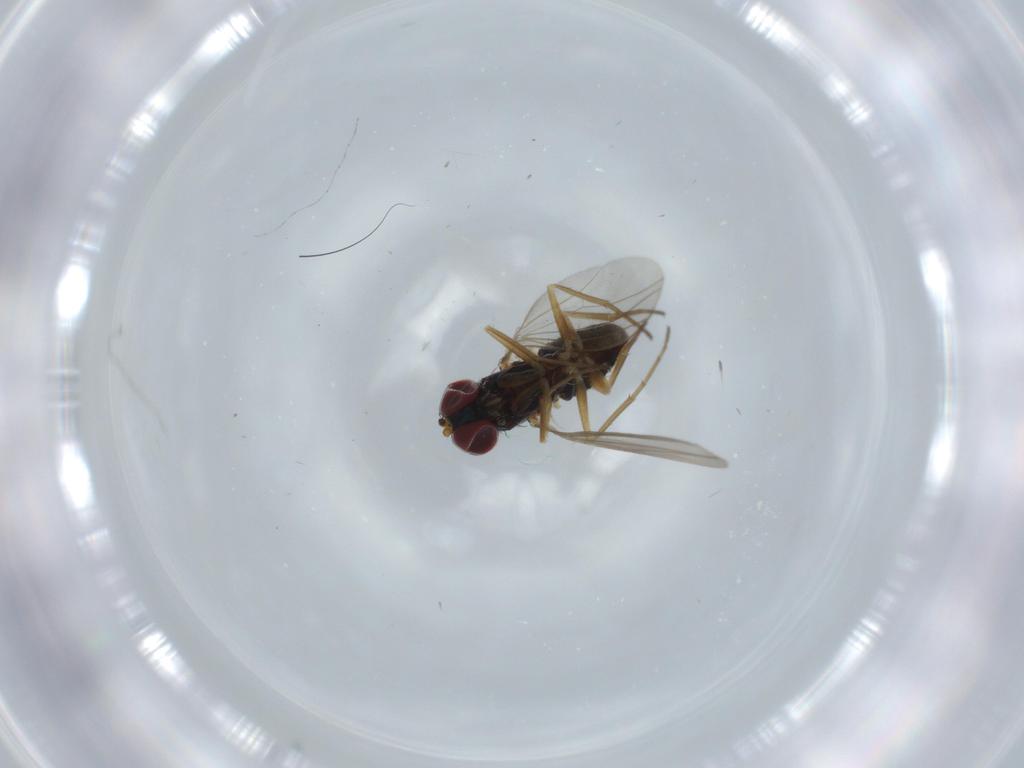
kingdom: Animalia
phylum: Arthropoda
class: Insecta
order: Diptera
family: Dolichopodidae
